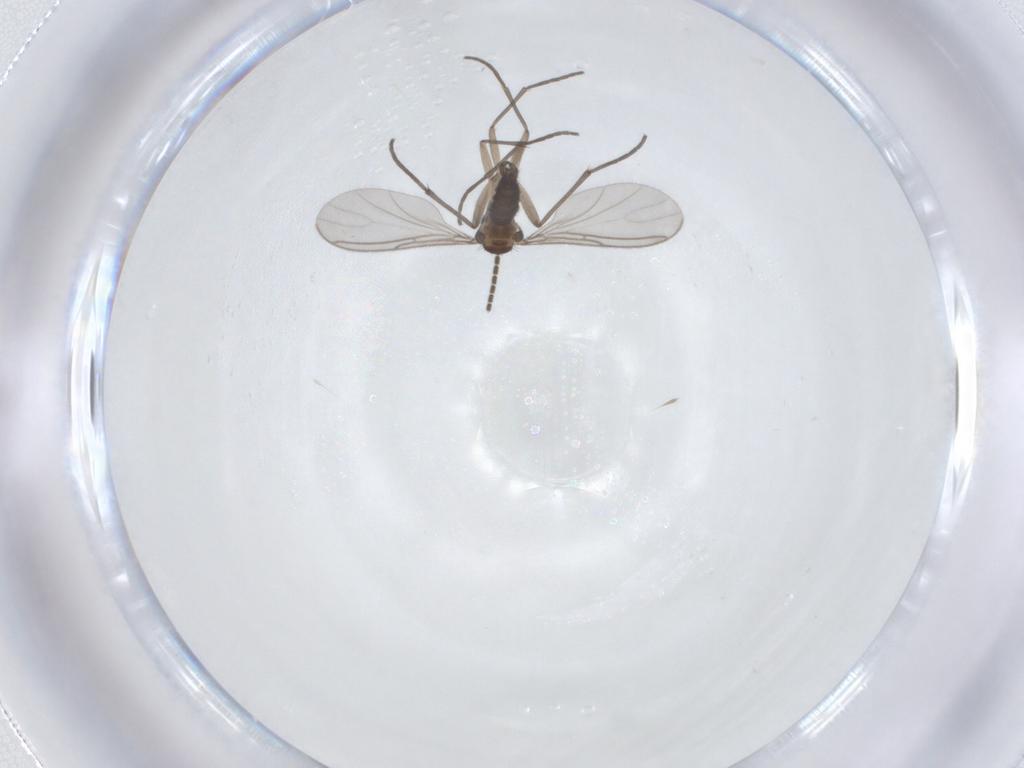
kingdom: Animalia
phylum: Arthropoda
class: Insecta
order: Diptera
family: Sciaridae
